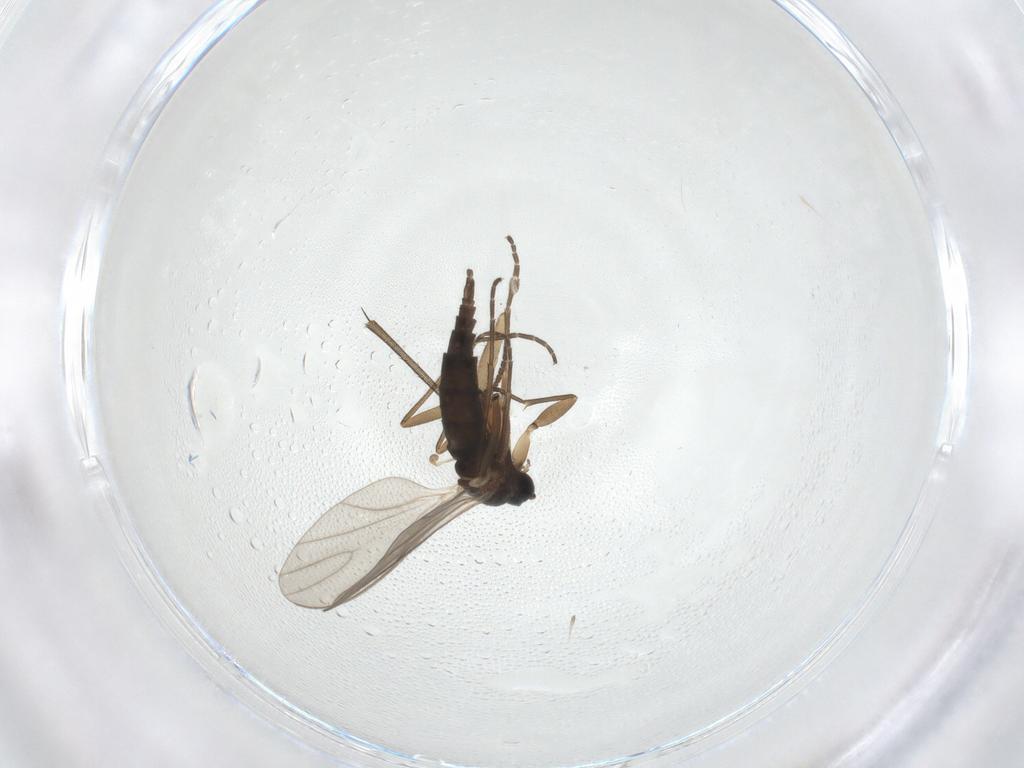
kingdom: Animalia
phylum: Arthropoda
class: Insecta
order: Diptera
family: Sciaridae
